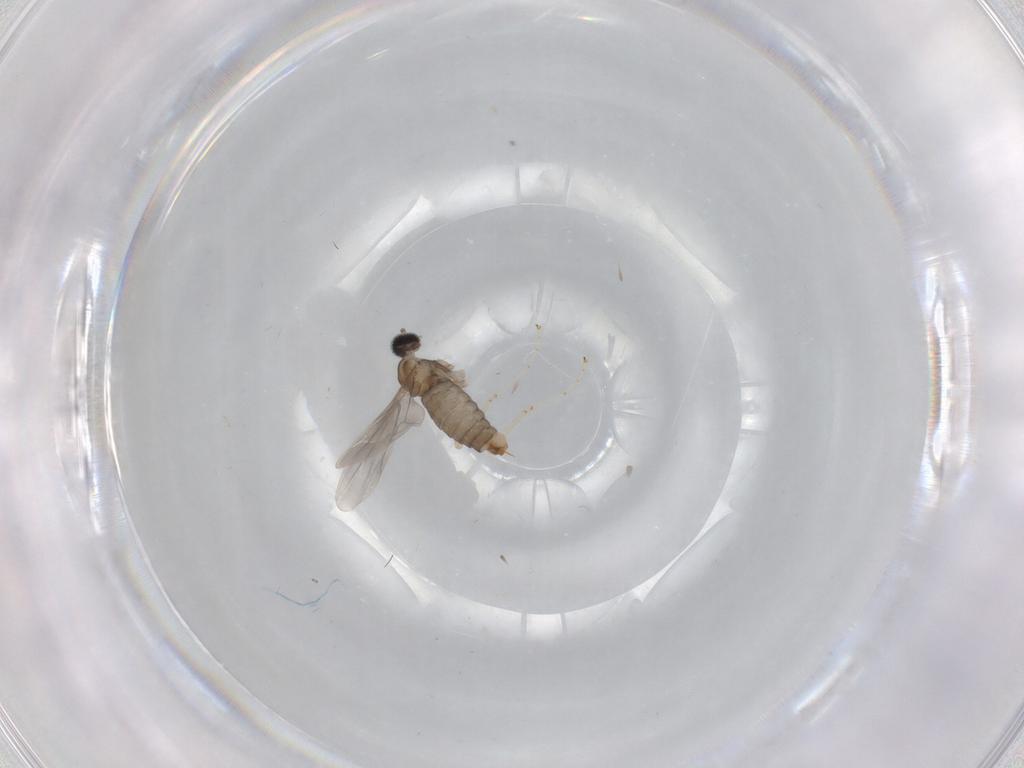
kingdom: Animalia
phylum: Arthropoda
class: Insecta
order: Diptera
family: Cecidomyiidae
